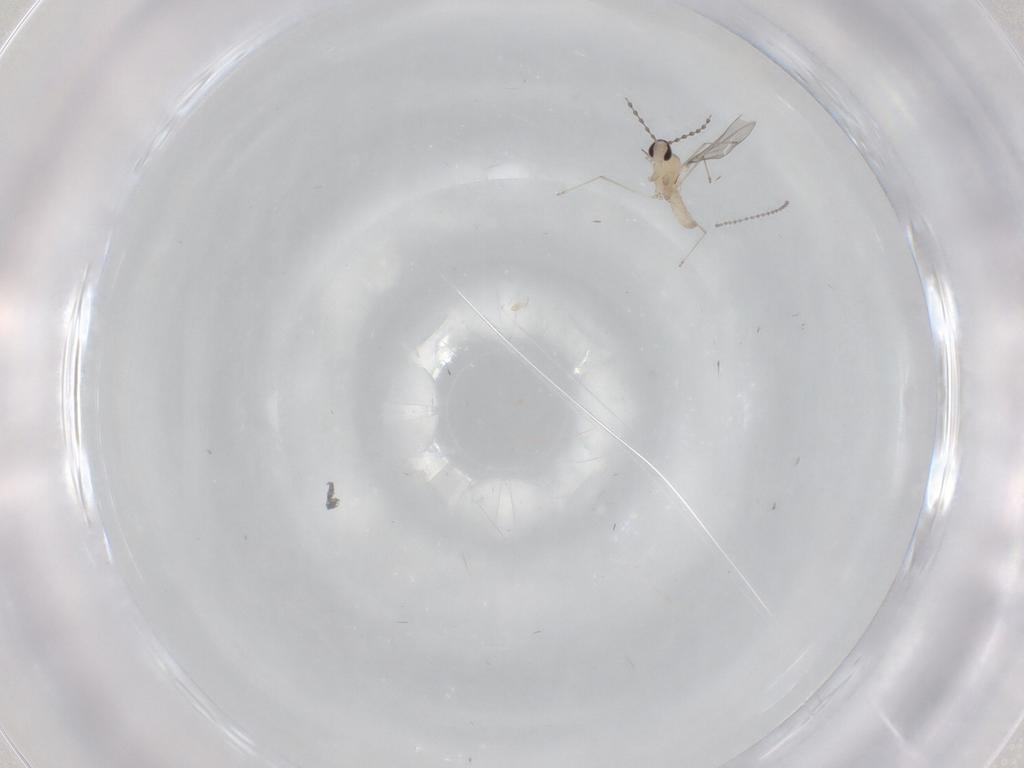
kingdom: Animalia
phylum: Arthropoda
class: Insecta
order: Diptera
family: Cecidomyiidae
